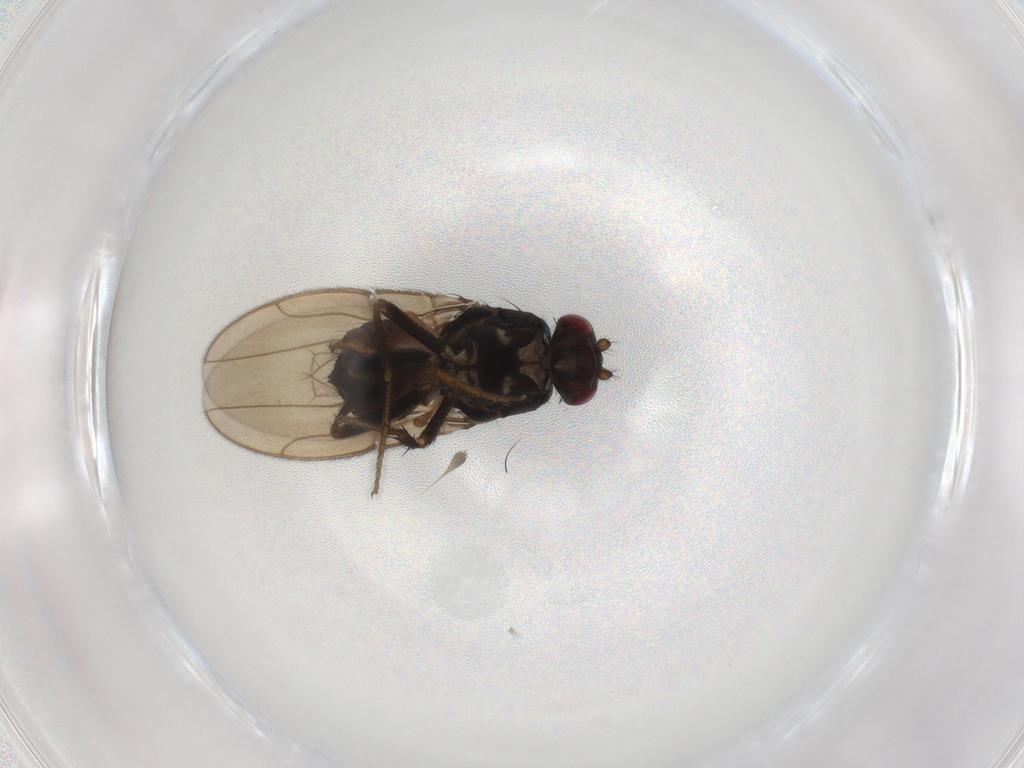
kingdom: Animalia
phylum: Arthropoda
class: Insecta
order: Diptera
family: Sphaeroceridae
